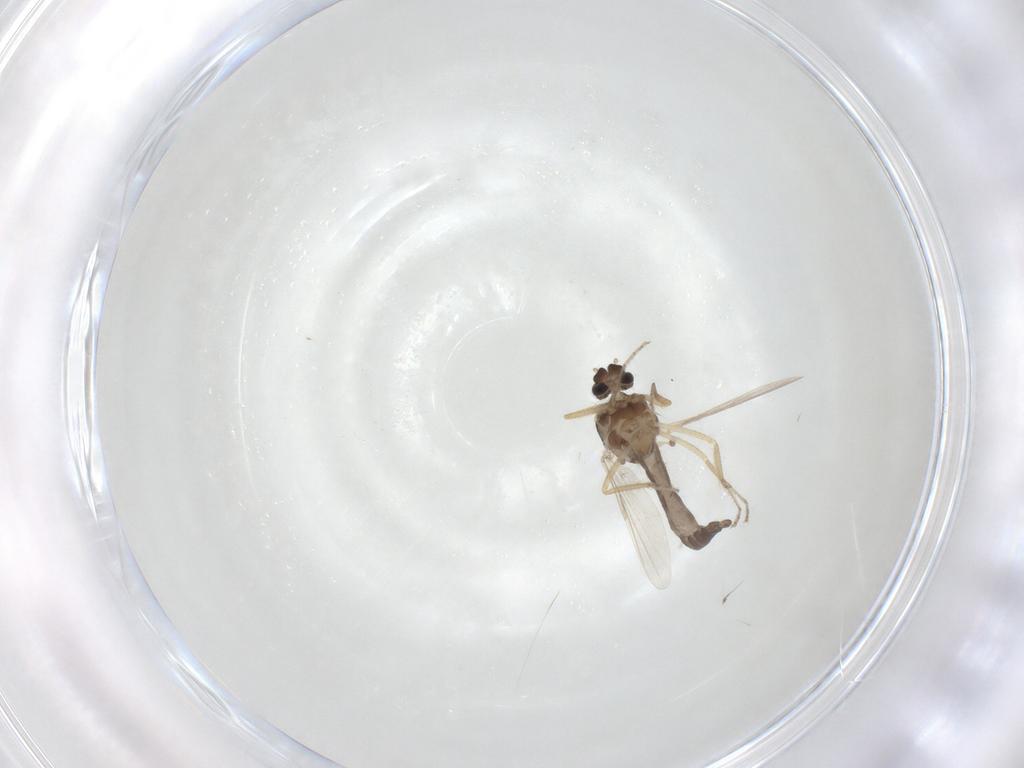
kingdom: Animalia
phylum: Arthropoda
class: Insecta
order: Diptera
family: Ceratopogonidae
